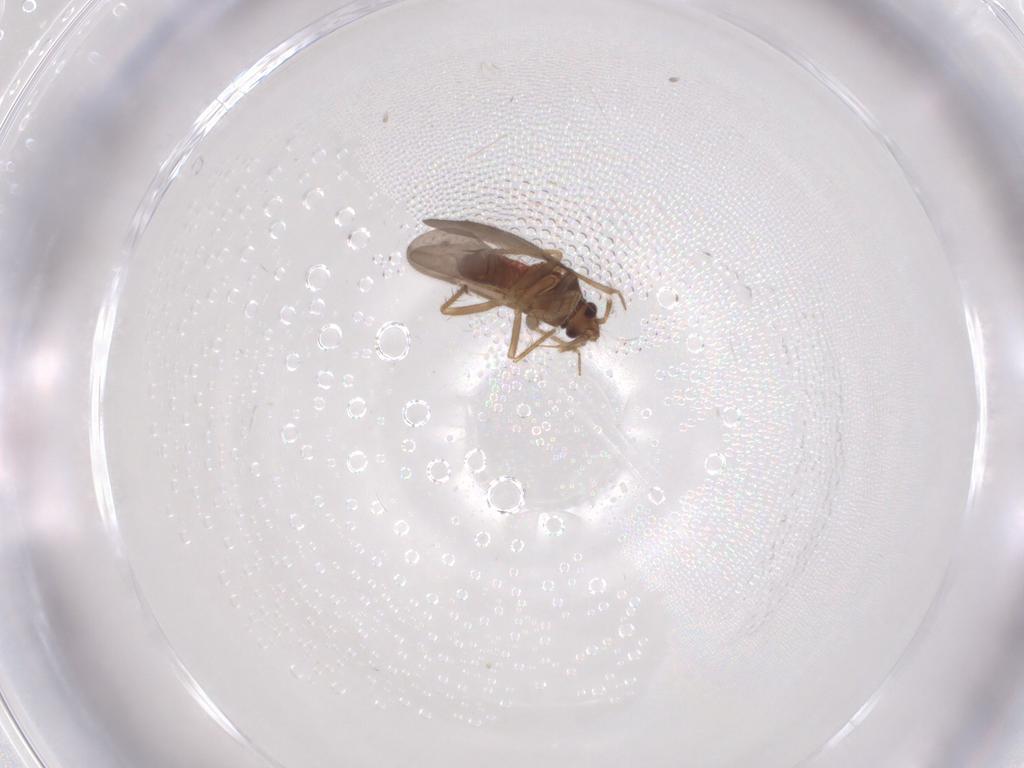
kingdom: Animalia
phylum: Arthropoda
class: Insecta
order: Hemiptera
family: Ceratocombidae
